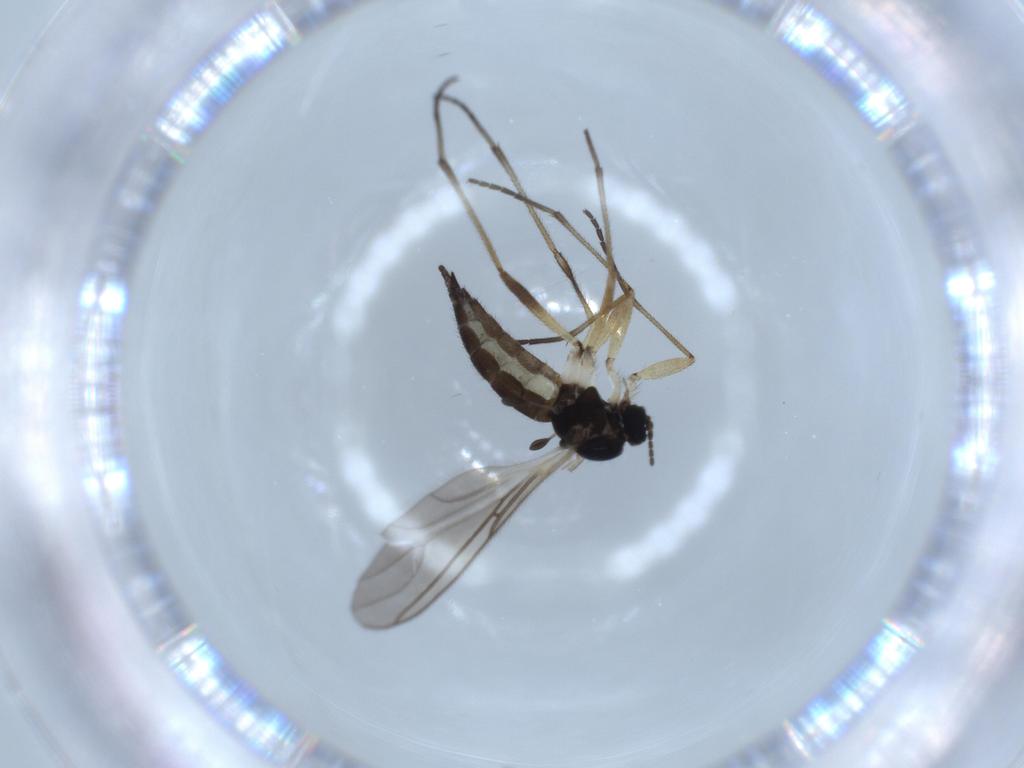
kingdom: Animalia
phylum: Arthropoda
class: Insecta
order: Diptera
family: Sciaridae
